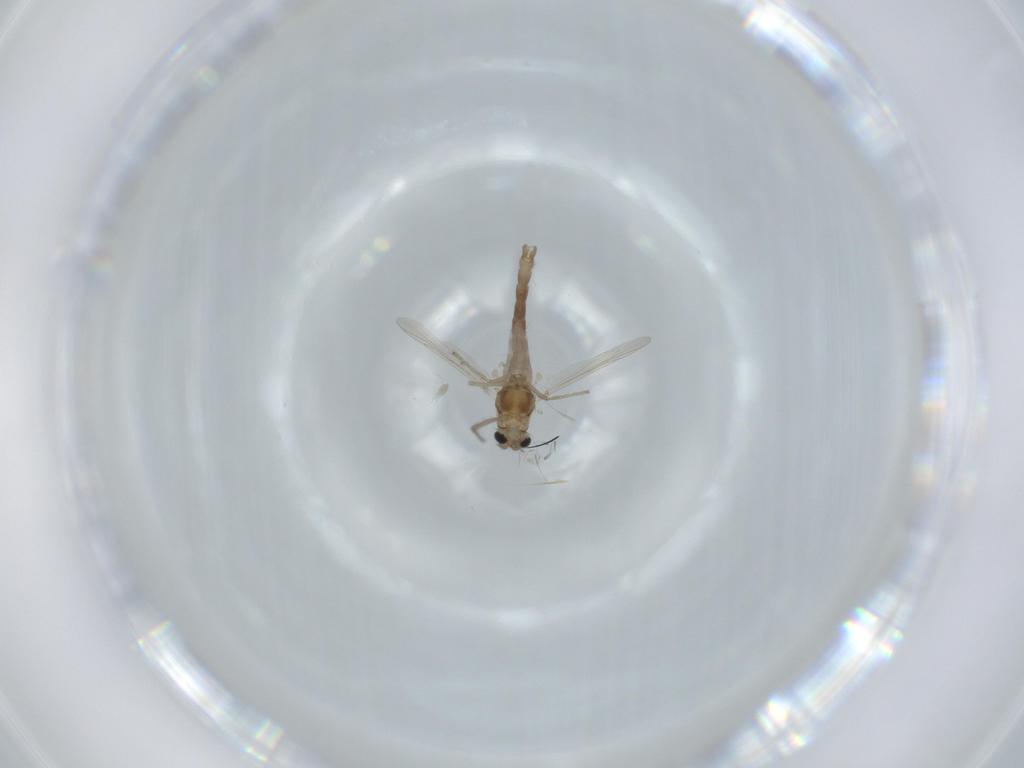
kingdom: Animalia
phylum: Arthropoda
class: Insecta
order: Diptera
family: Chironomidae
